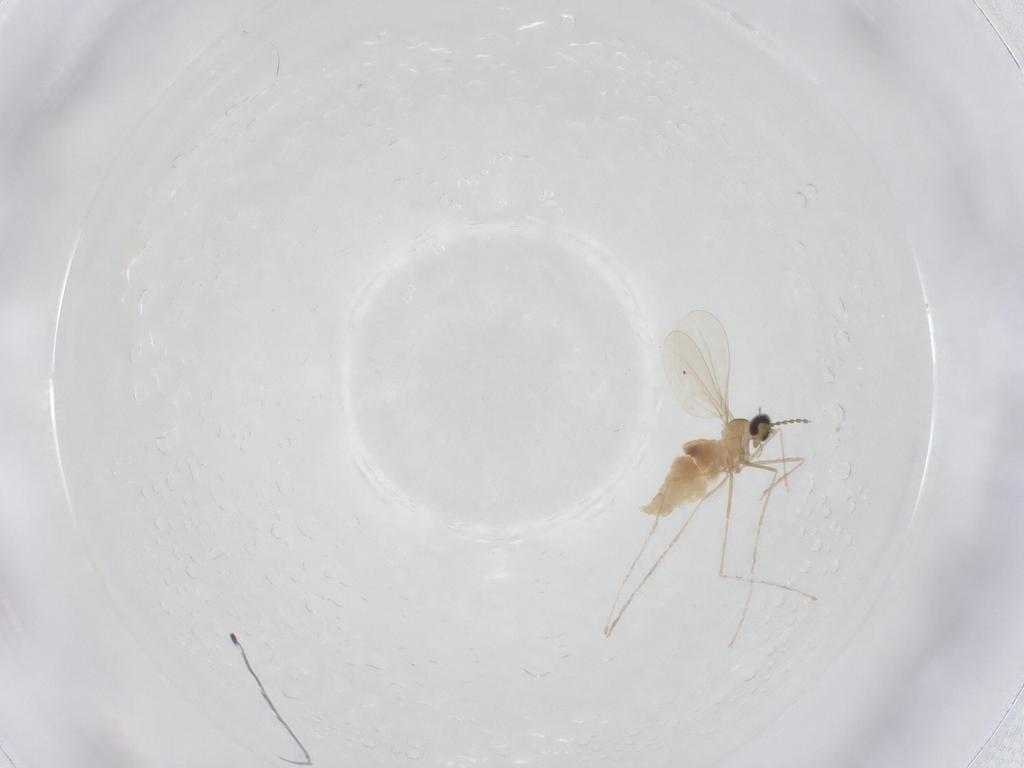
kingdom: Animalia
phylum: Arthropoda
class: Insecta
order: Diptera
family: Cecidomyiidae
